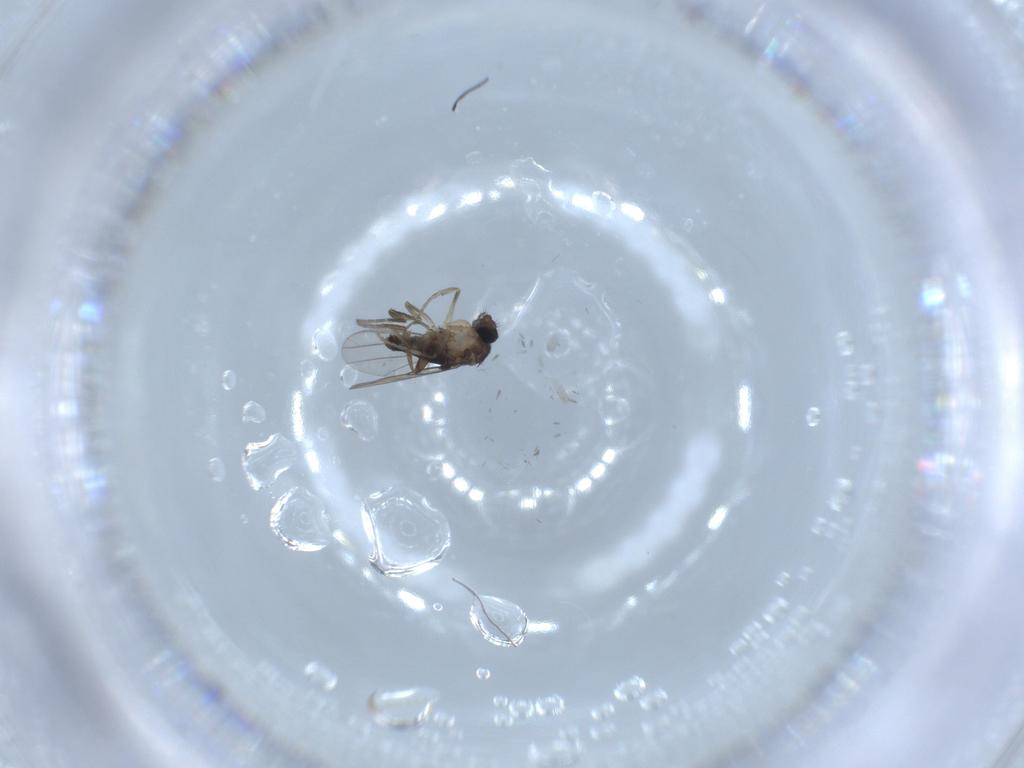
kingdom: Animalia
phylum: Arthropoda
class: Insecta
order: Diptera
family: Phoridae
